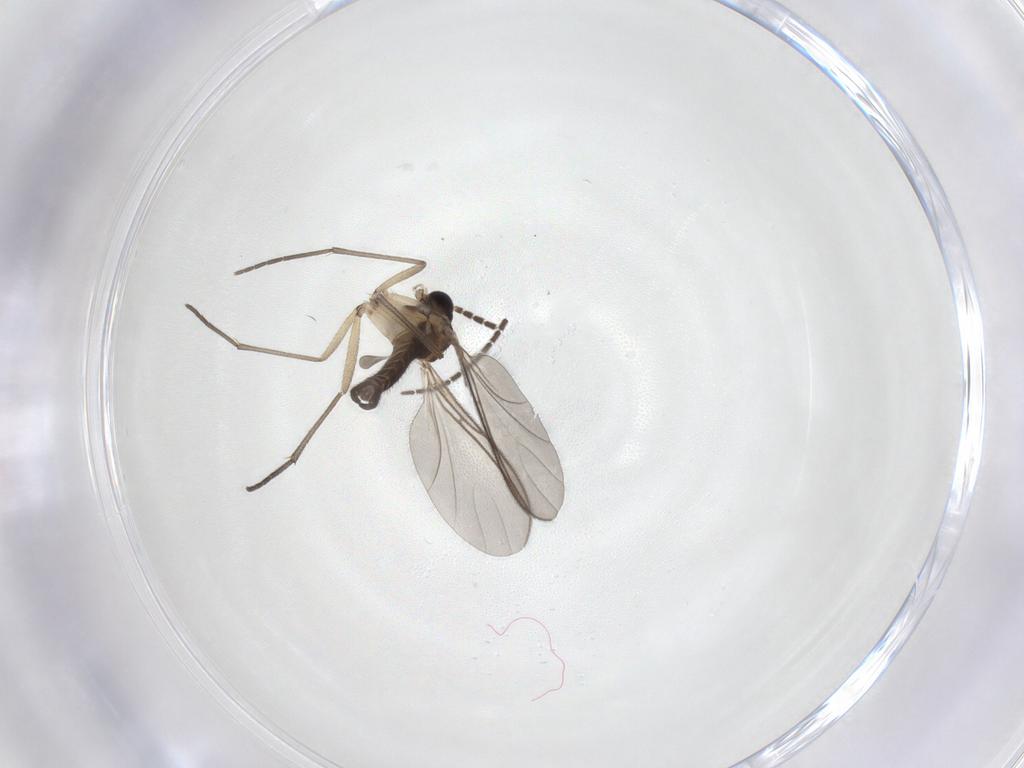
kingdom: Animalia
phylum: Arthropoda
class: Insecta
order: Diptera
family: Sciaridae
